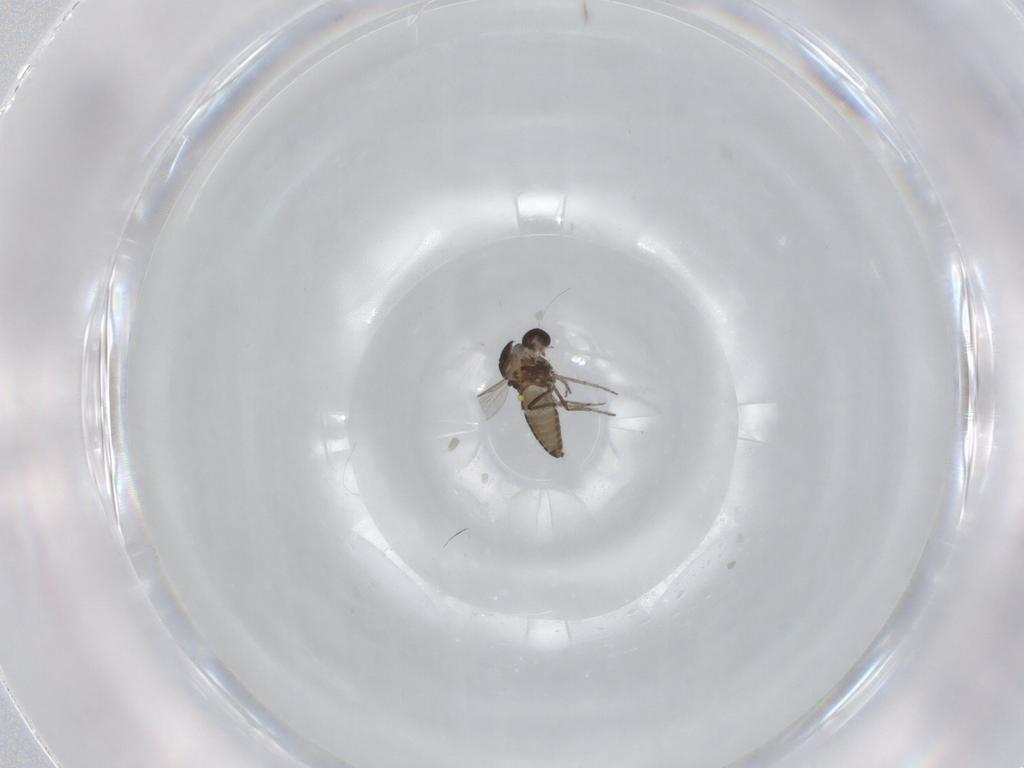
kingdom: Animalia
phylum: Arthropoda
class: Insecta
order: Diptera
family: Ceratopogonidae
